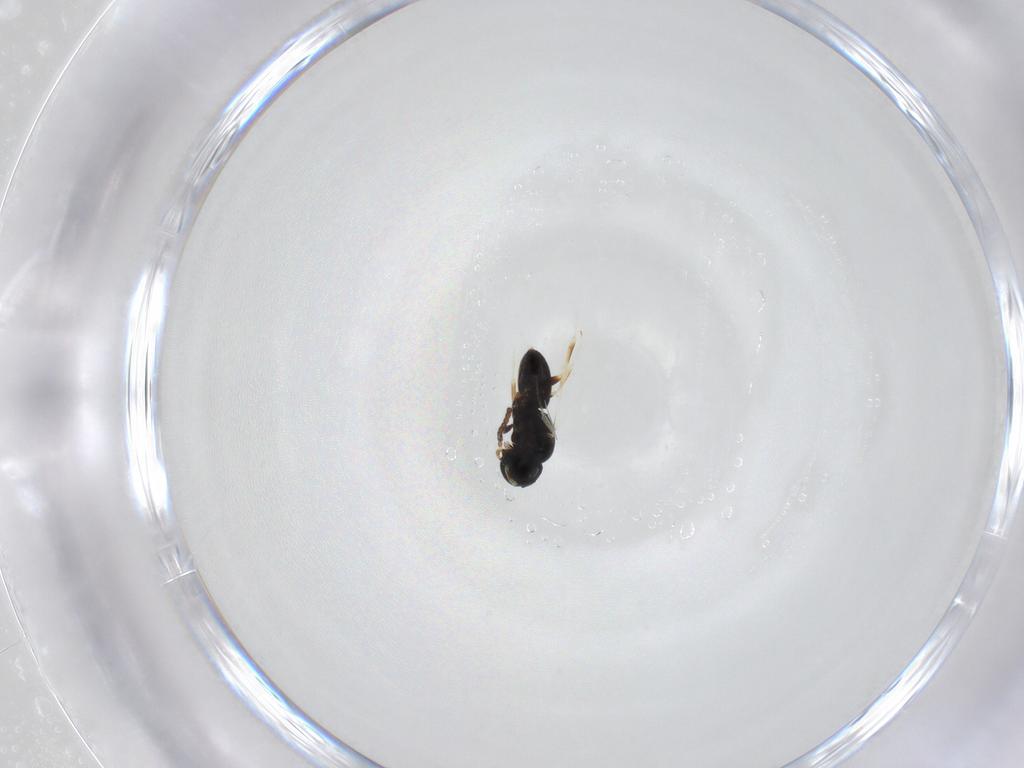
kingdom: Animalia
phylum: Arthropoda
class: Insecta
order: Hymenoptera
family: Scelionidae
